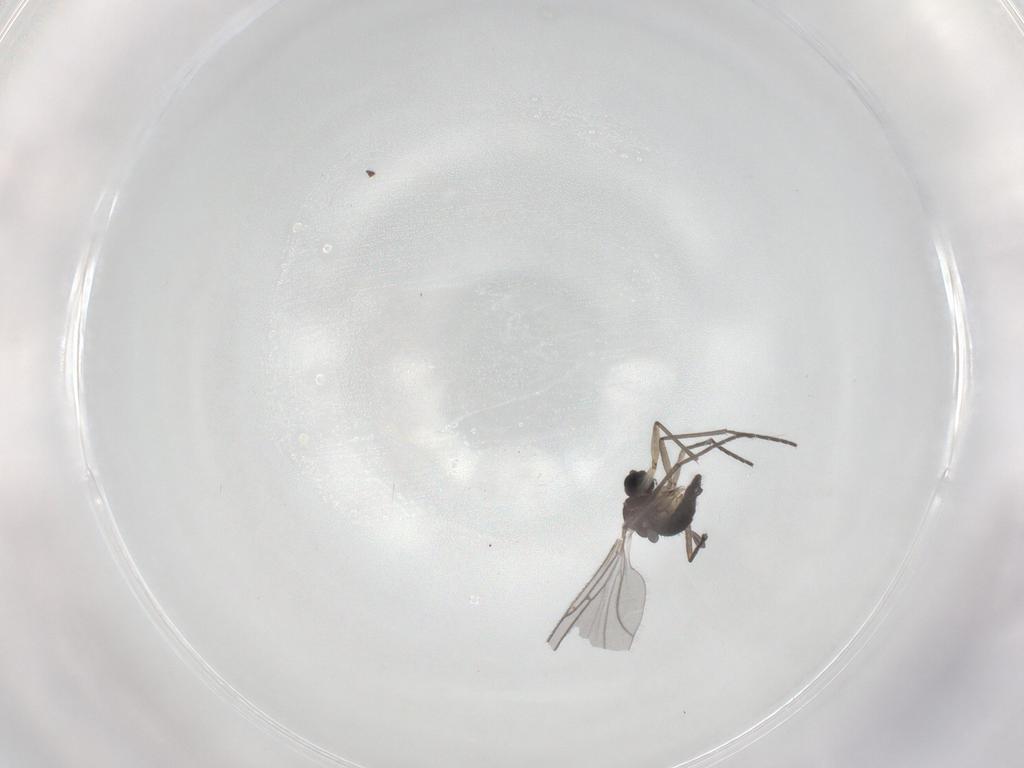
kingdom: Animalia
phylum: Arthropoda
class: Insecta
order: Diptera
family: Sciaridae
